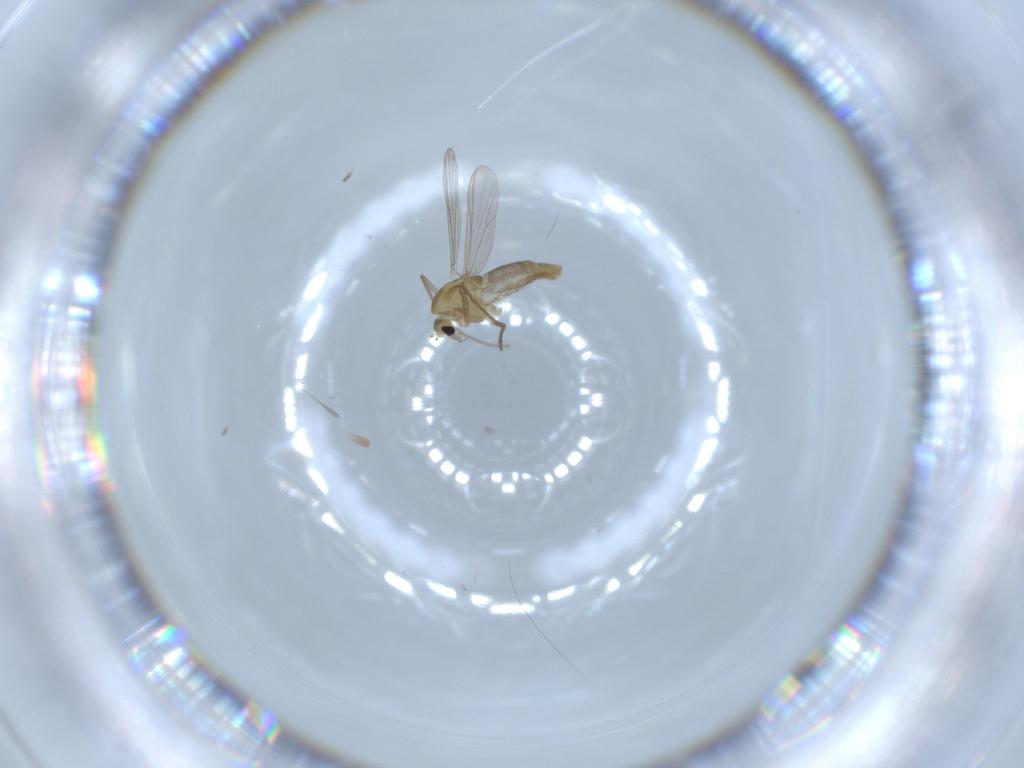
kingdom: Animalia
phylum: Arthropoda
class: Insecta
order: Diptera
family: Chironomidae
